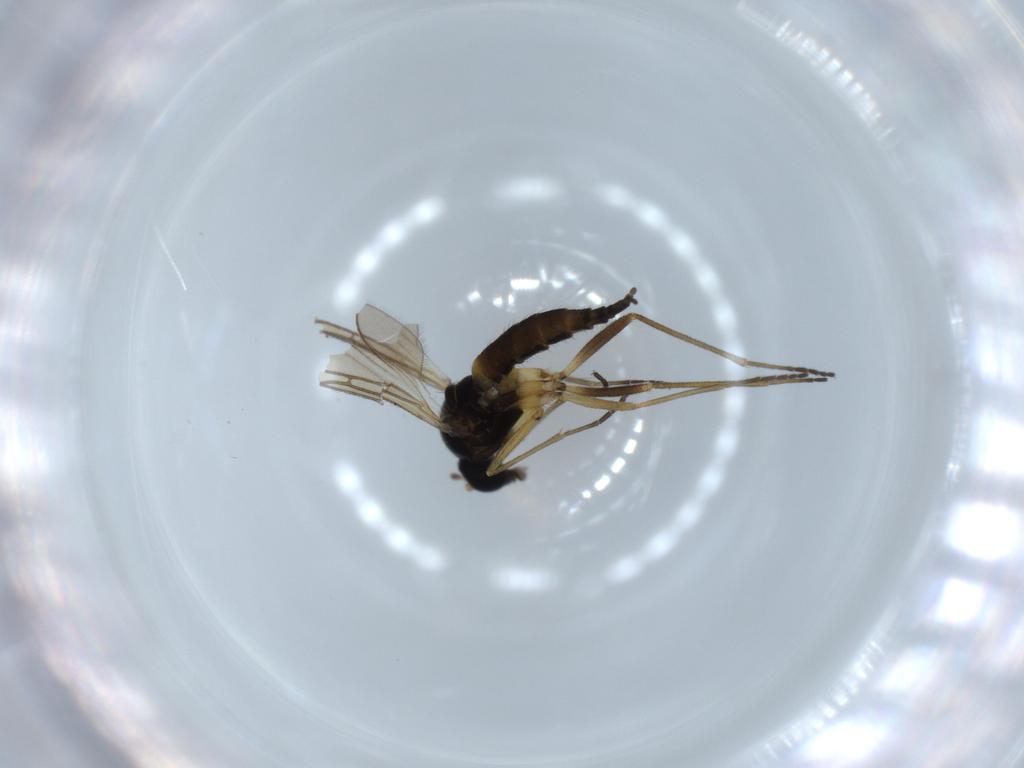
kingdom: Animalia
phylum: Arthropoda
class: Insecta
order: Diptera
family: Sciaridae
